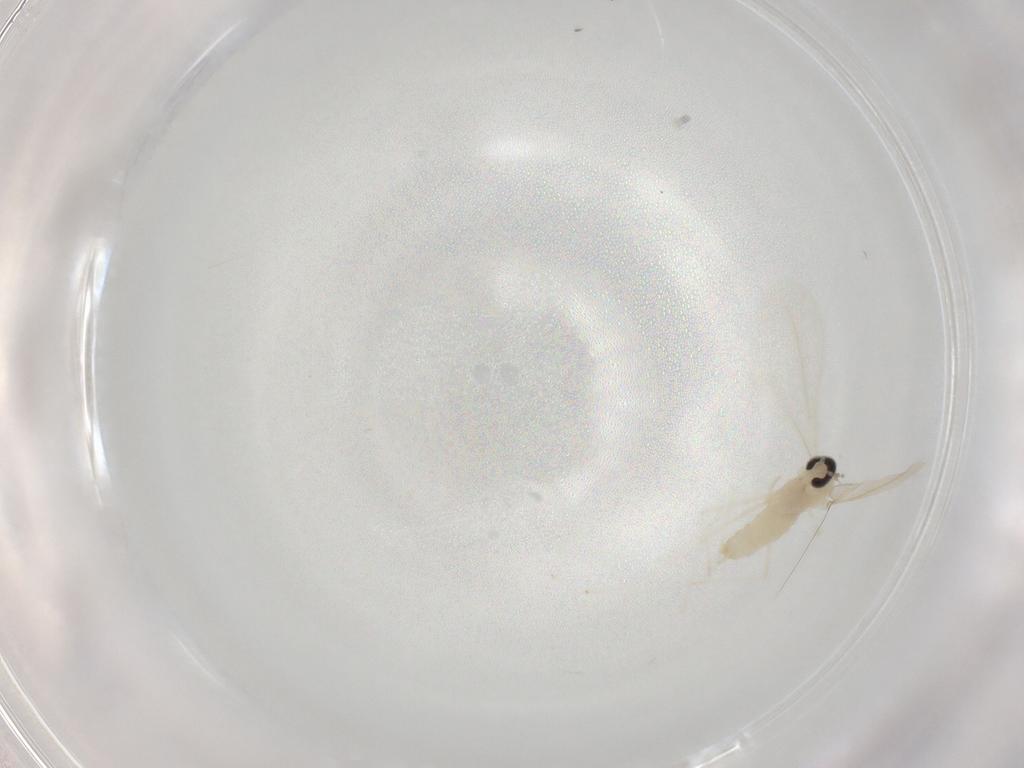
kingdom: Animalia
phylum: Arthropoda
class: Insecta
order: Diptera
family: Cecidomyiidae
